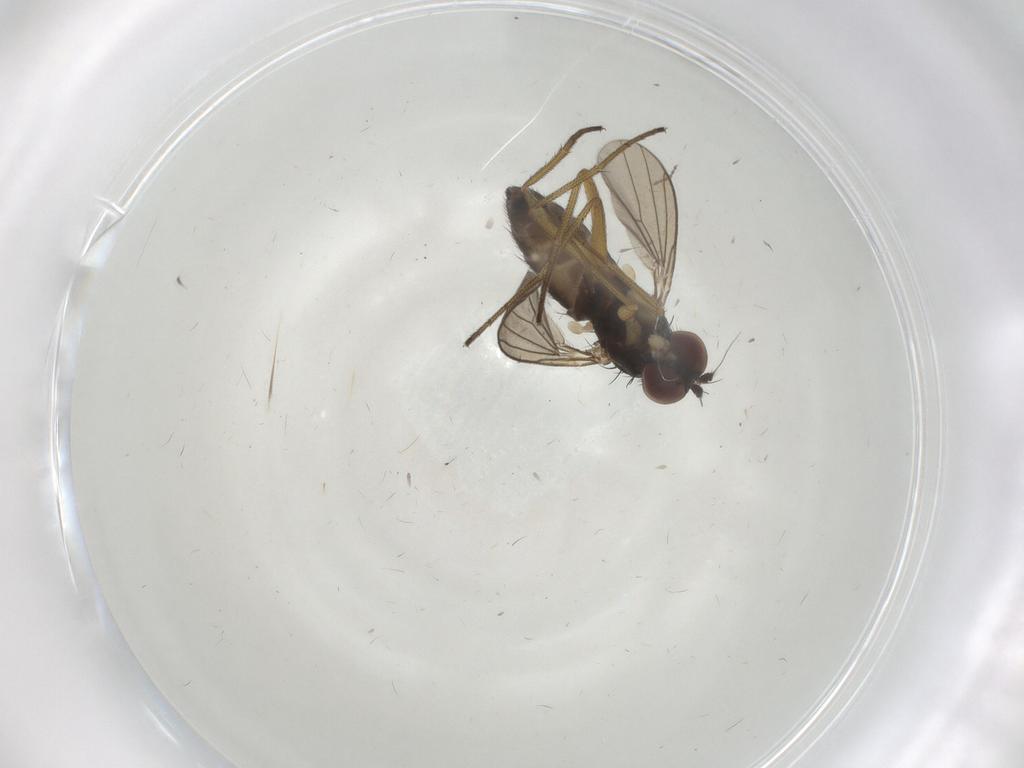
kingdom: Animalia
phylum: Arthropoda
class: Insecta
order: Diptera
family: Dolichopodidae
